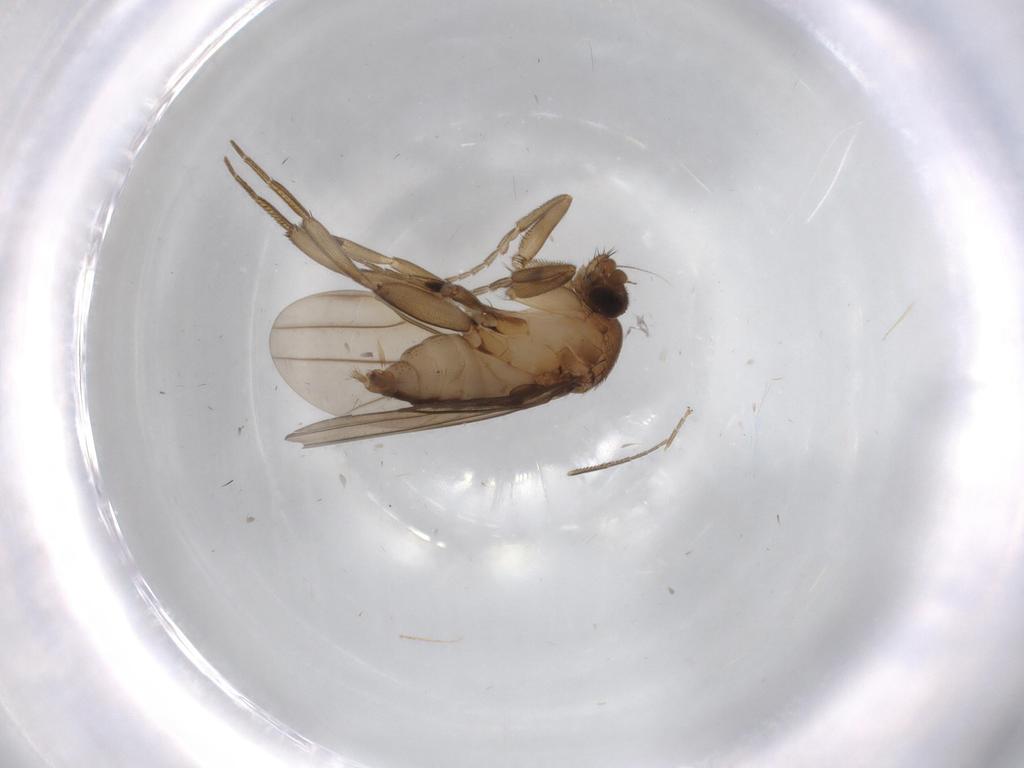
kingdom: Animalia
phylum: Arthropoda
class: Insecta
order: Diptera
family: Phoridae
